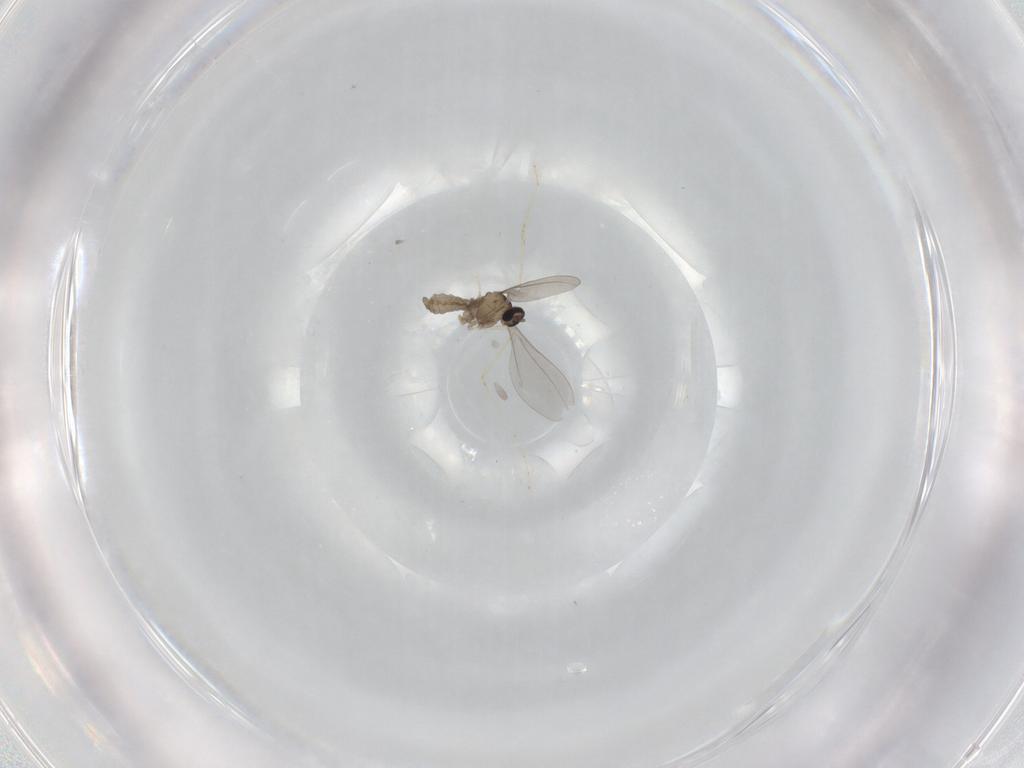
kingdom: Animalia
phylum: Arthropoda
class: Insecta
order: Diptera
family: Cecidomyiidae
